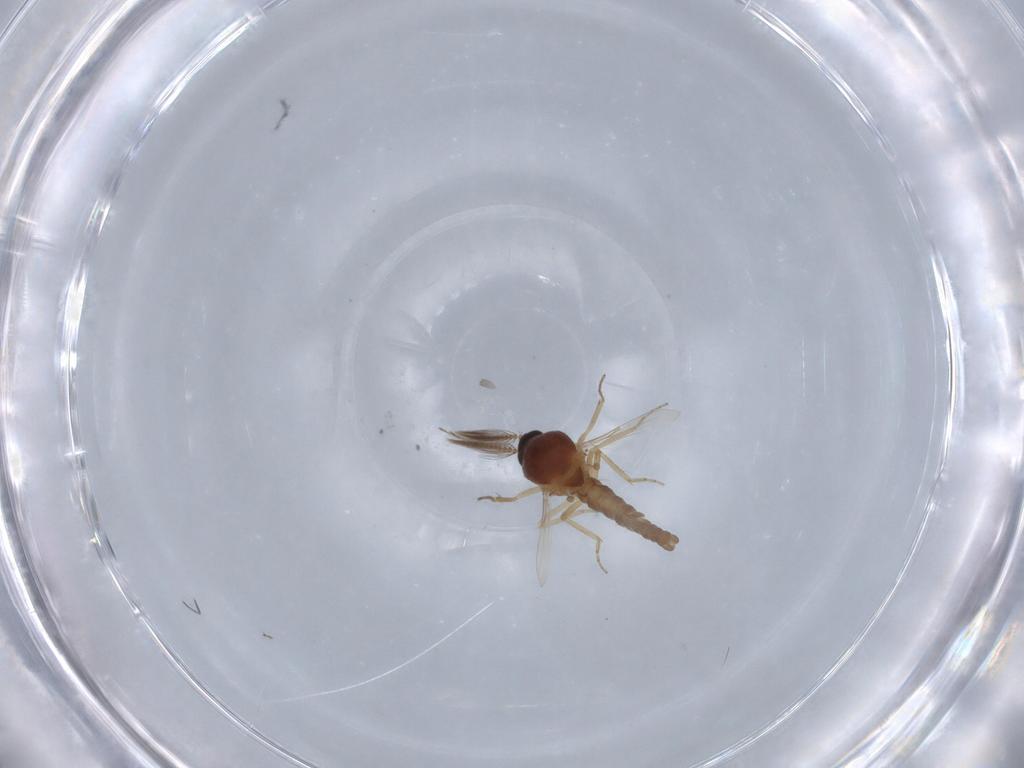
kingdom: Animalia
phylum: Arthropoda
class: Insecta
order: Diptera
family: Ceratopogonidae
